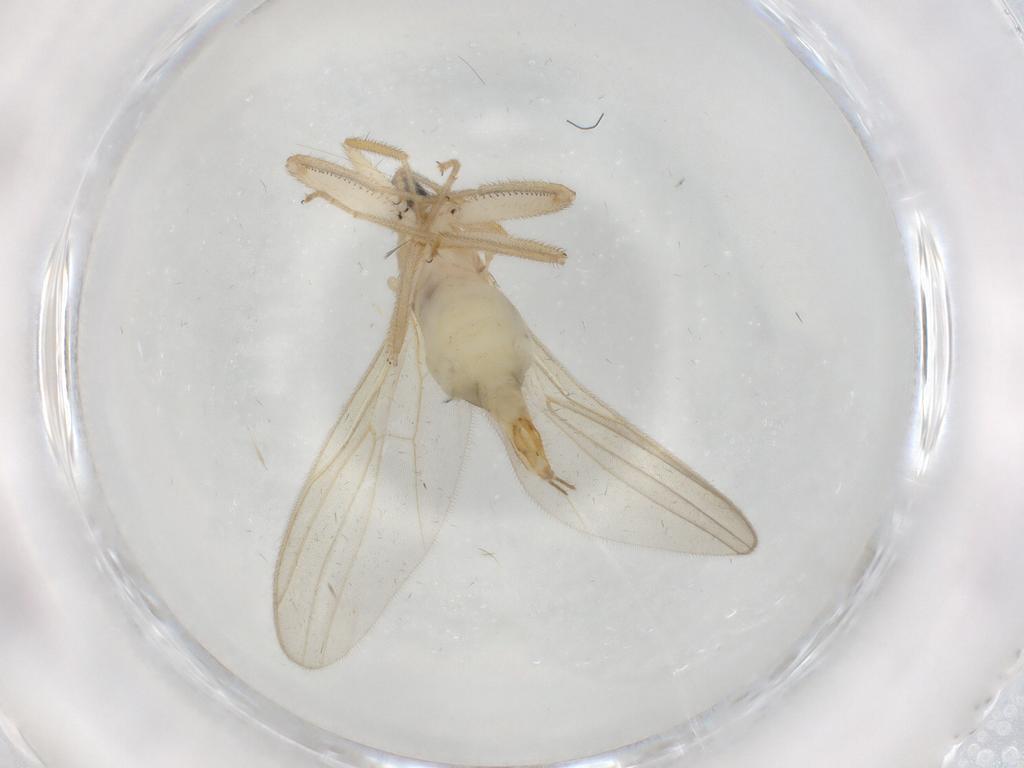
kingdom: Animalia
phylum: Arthropoda
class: Insecta
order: Diptera
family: Hybotidae
